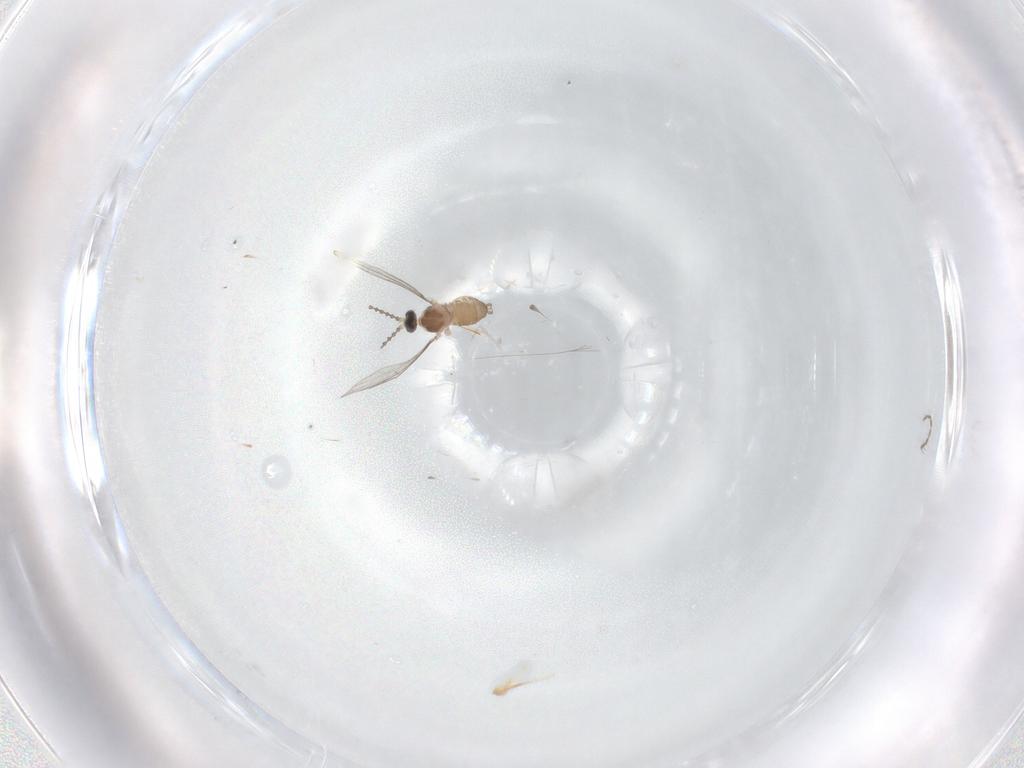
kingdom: Animalia
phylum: Arthropoda
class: Insecta
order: Diptera
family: Cecidomyiidae
